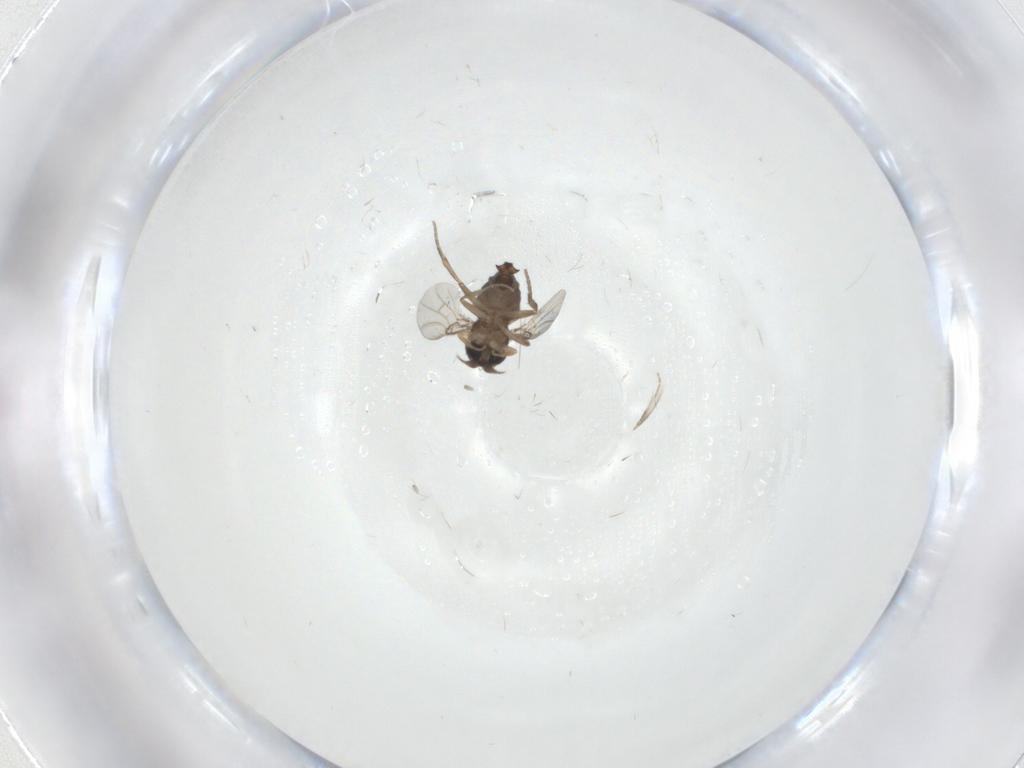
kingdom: Animalia
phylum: Arthropoda
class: Insecta
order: Diptera
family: Phoridae
